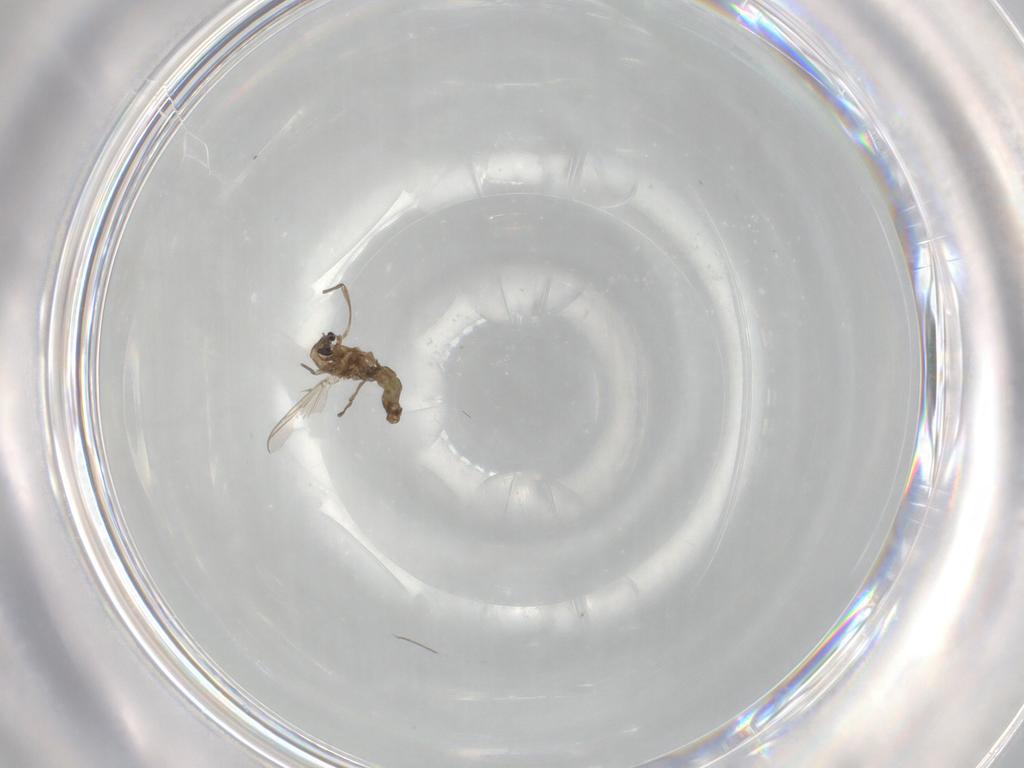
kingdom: Animalia
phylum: Arthropoda
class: Insecta
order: Diptera
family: Chironomidae
